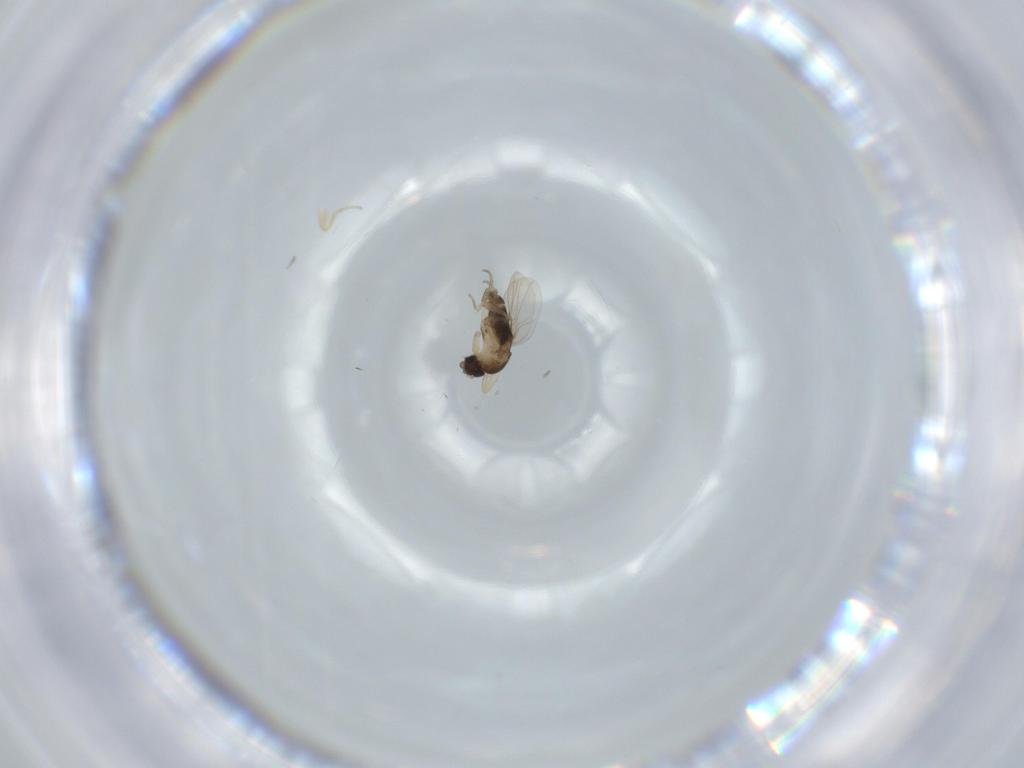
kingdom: Animalia
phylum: Arthropoda
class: Insecta
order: Diptera
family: Phoridae
